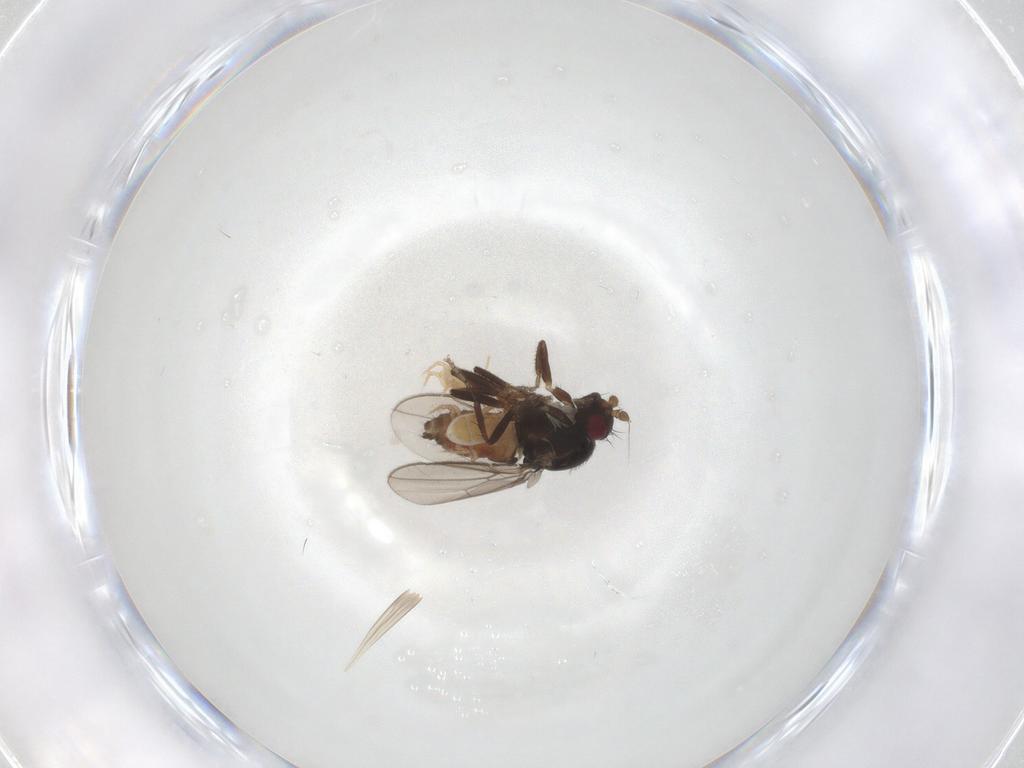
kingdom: Animalia
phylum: Arthropoda
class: Insecta
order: Diptera
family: Sphaeroceridae
